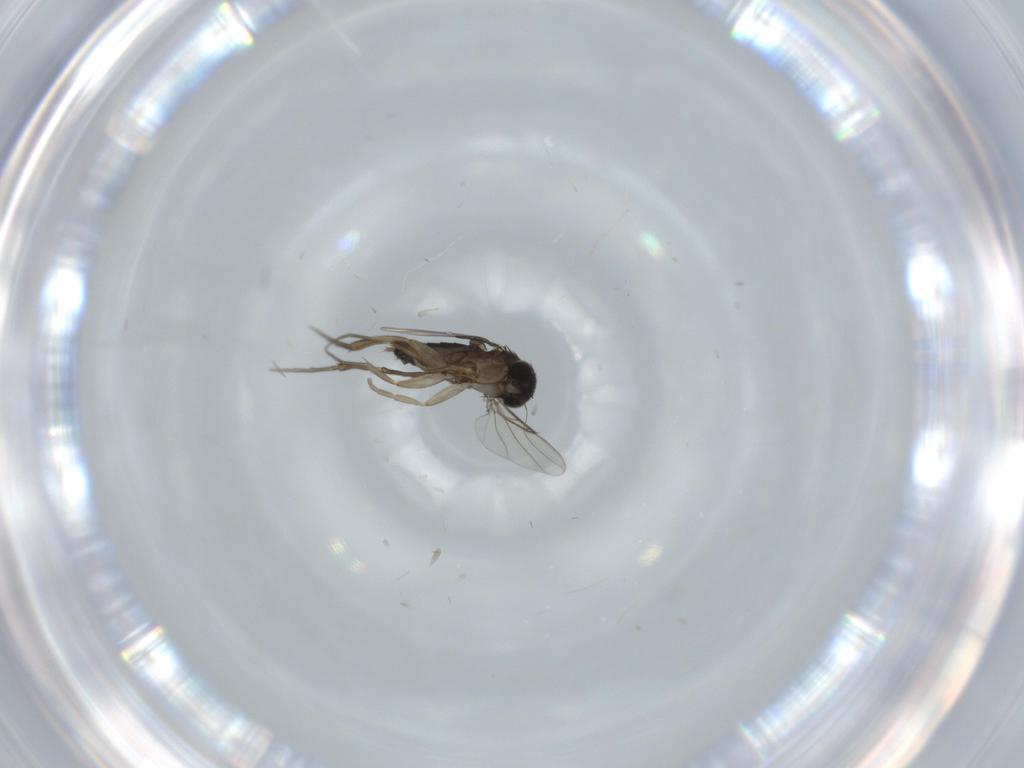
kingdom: Animalia
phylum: Arthropoda
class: Insecta
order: Diptera
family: Phoridae
